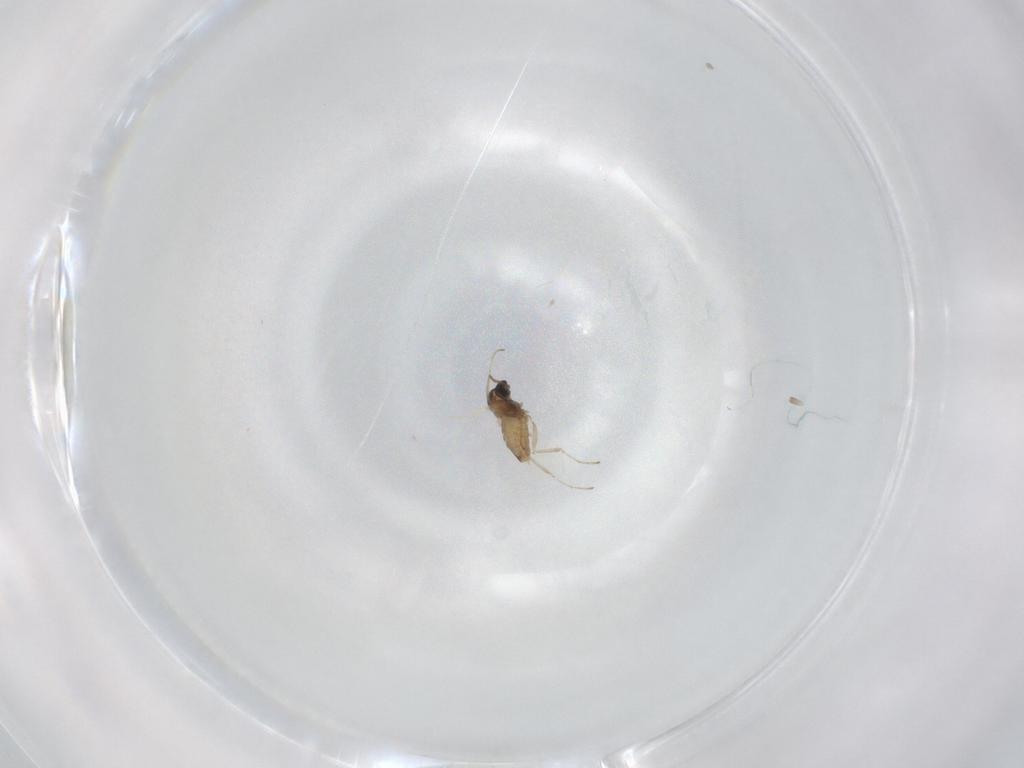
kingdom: Animalia
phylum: Arthropoda
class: Insecta
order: Diptera
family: Cecidomyiidae
